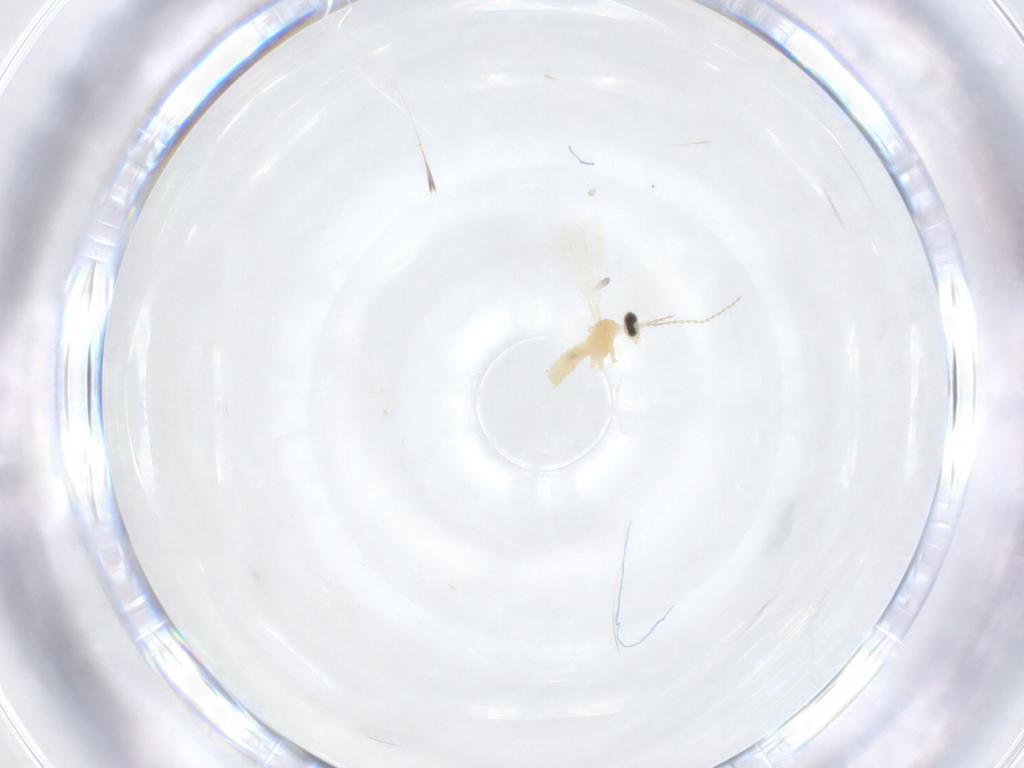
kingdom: Animalia
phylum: Arthropoda
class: Insecta
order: Diptera
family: Cecidomyiidae
